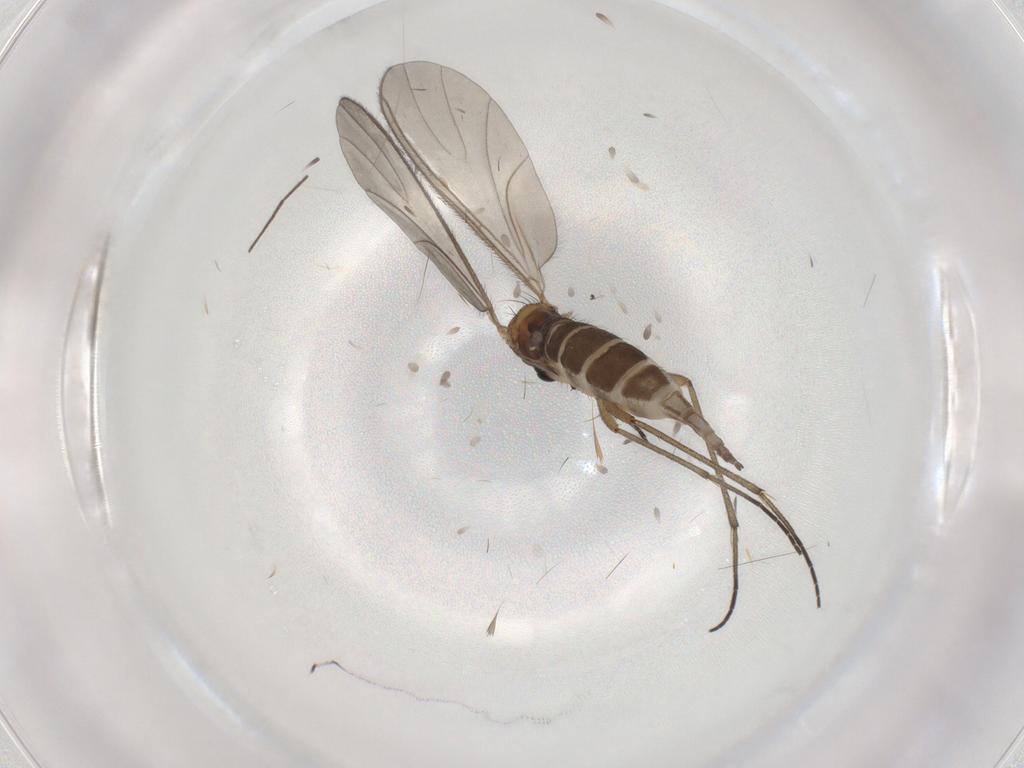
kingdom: Animalia
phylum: Arthropoda
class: Insecta
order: Diptera
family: Sciaridae
